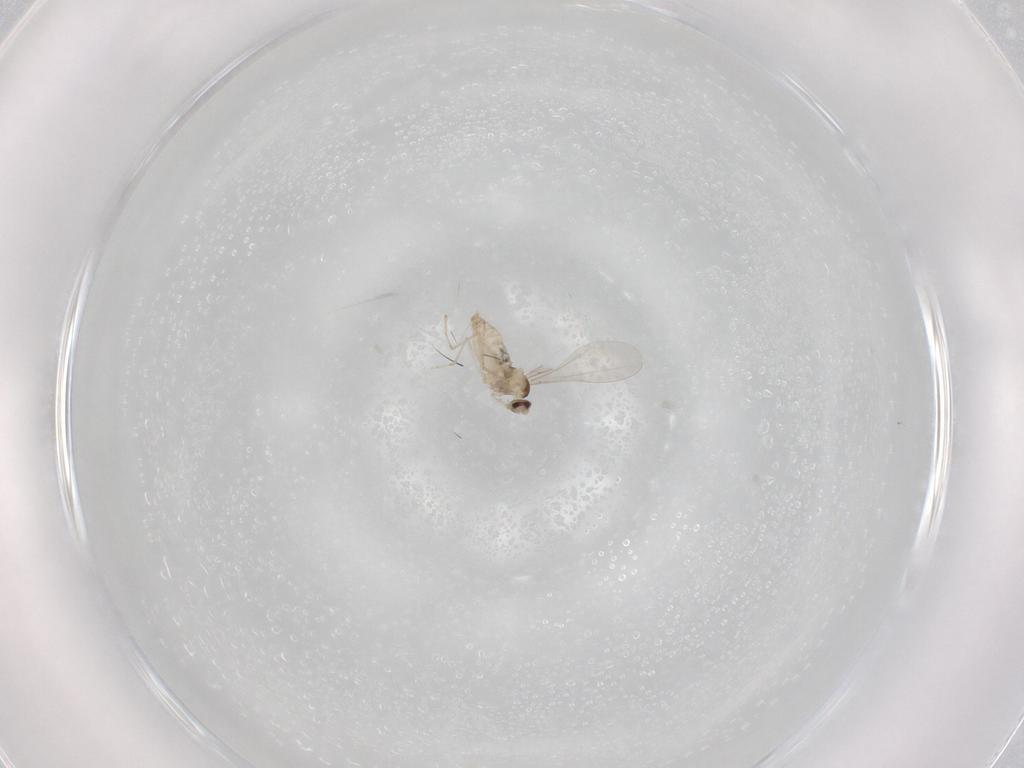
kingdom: Animalia
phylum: Arthropoda
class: Insecta
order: Diptera
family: Cecidomyiidae
